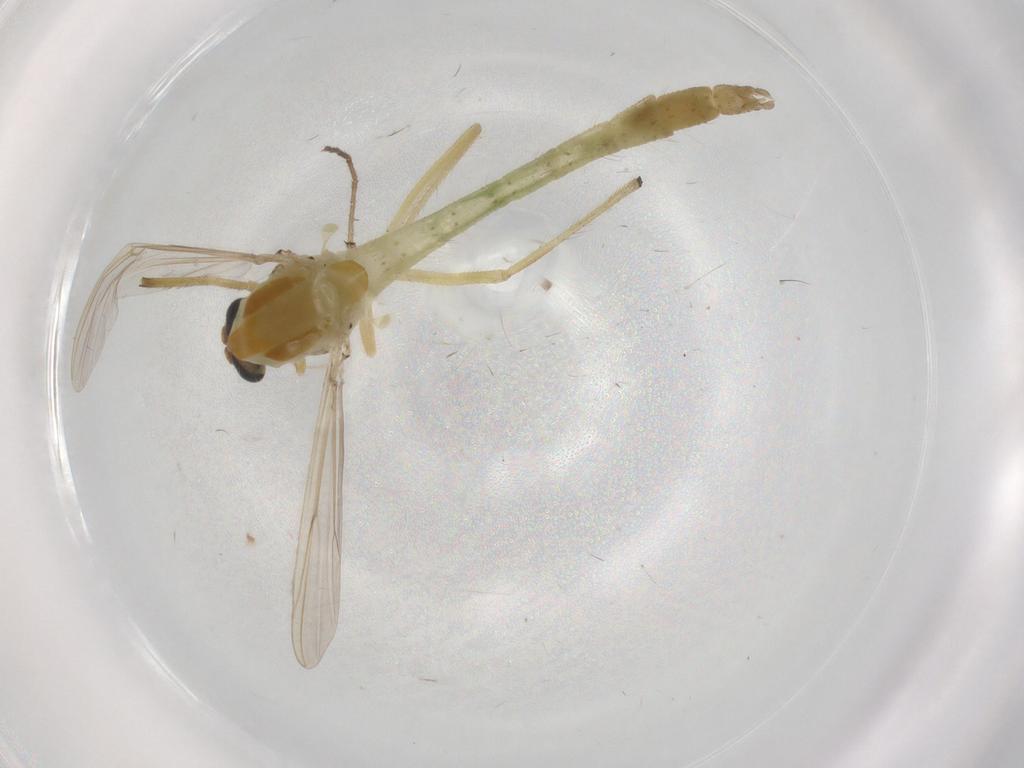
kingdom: Animalia
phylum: Arthropoda
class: Insecta
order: Diptera
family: Chironomidae
